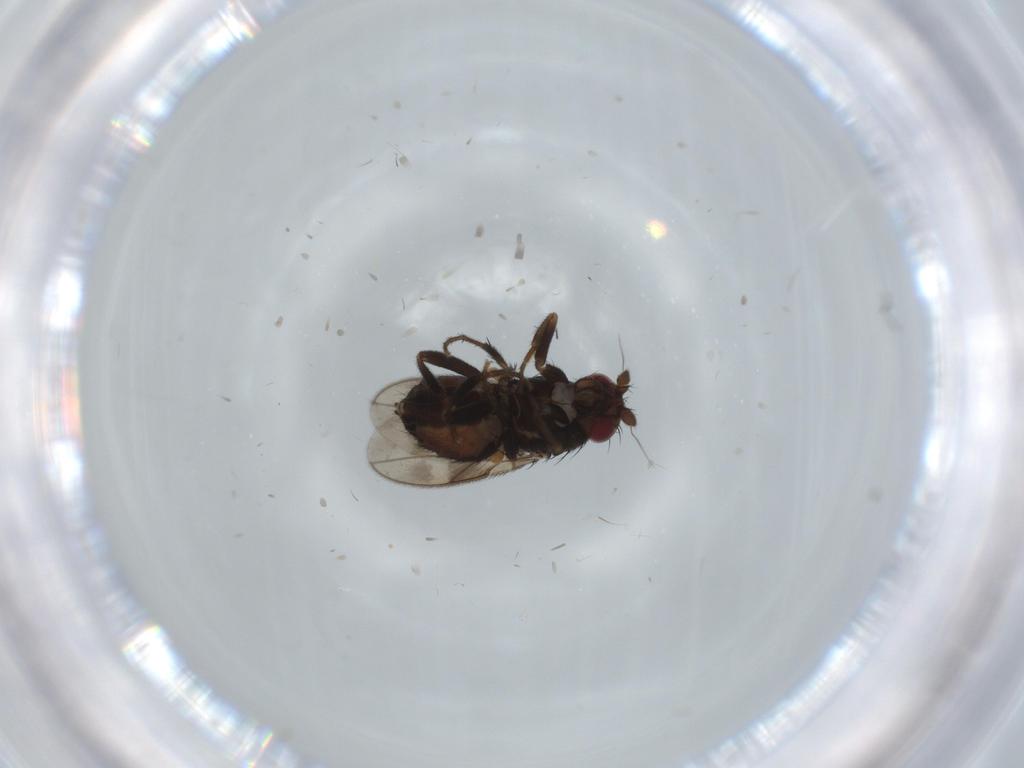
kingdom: Animalia
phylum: Arthropoda
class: Insecta
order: Diptera
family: Sphaeroceridae
